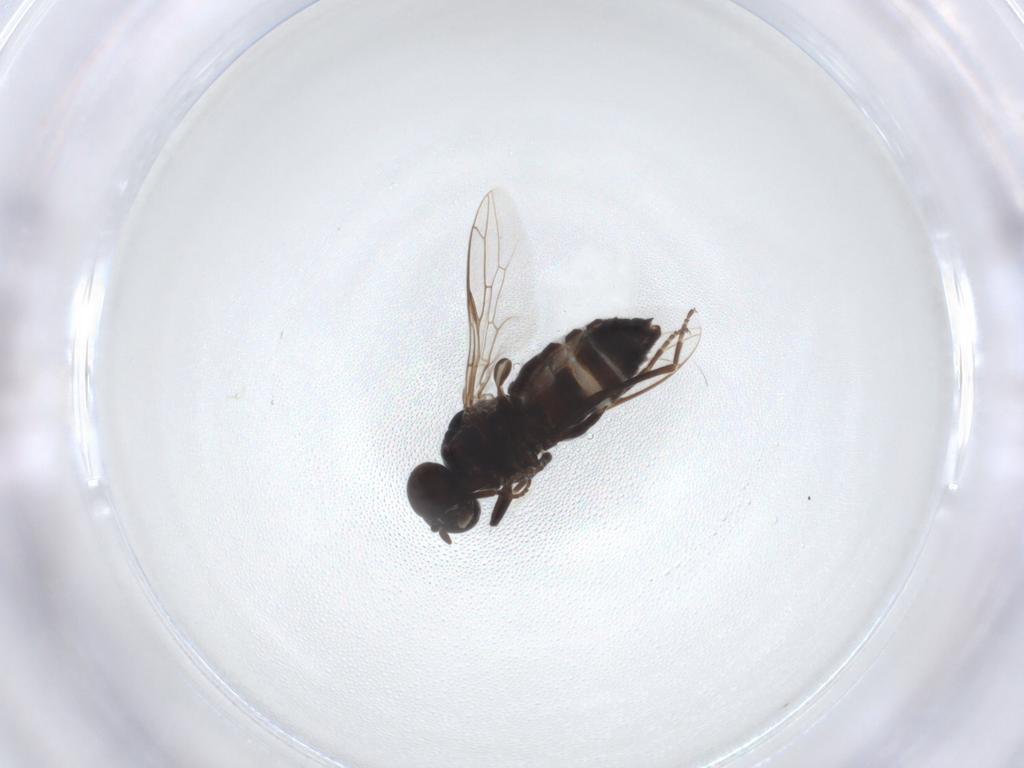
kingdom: Animalia
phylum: Arthropoda
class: Insecta
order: Diptera
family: Scenopinidae
